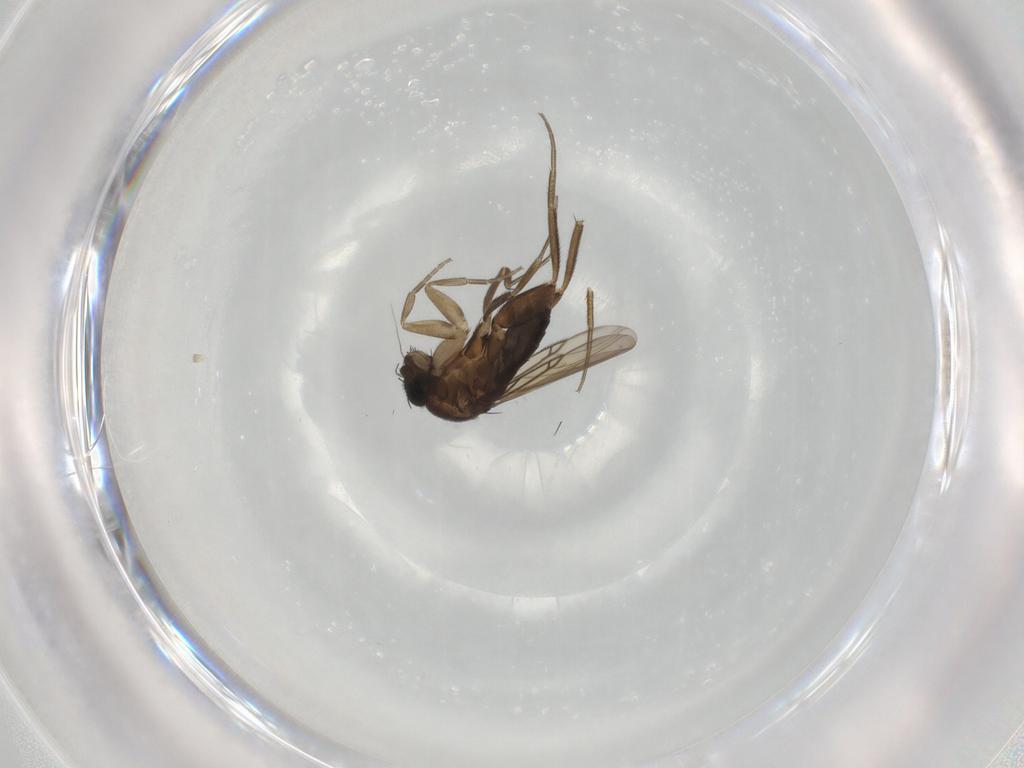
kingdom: Animalia
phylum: Arthropoda
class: Insecta
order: Diptera
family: Phoridae
